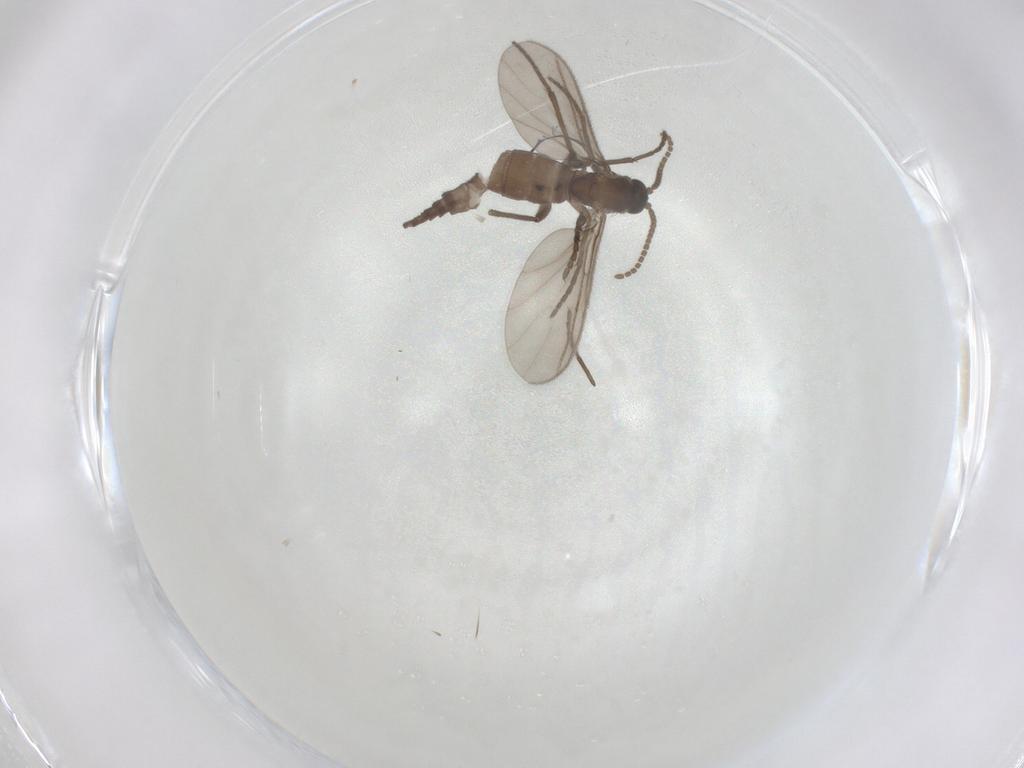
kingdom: Animalia
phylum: Arthropoda
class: Insecta
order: Diptera
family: Sciaridae
